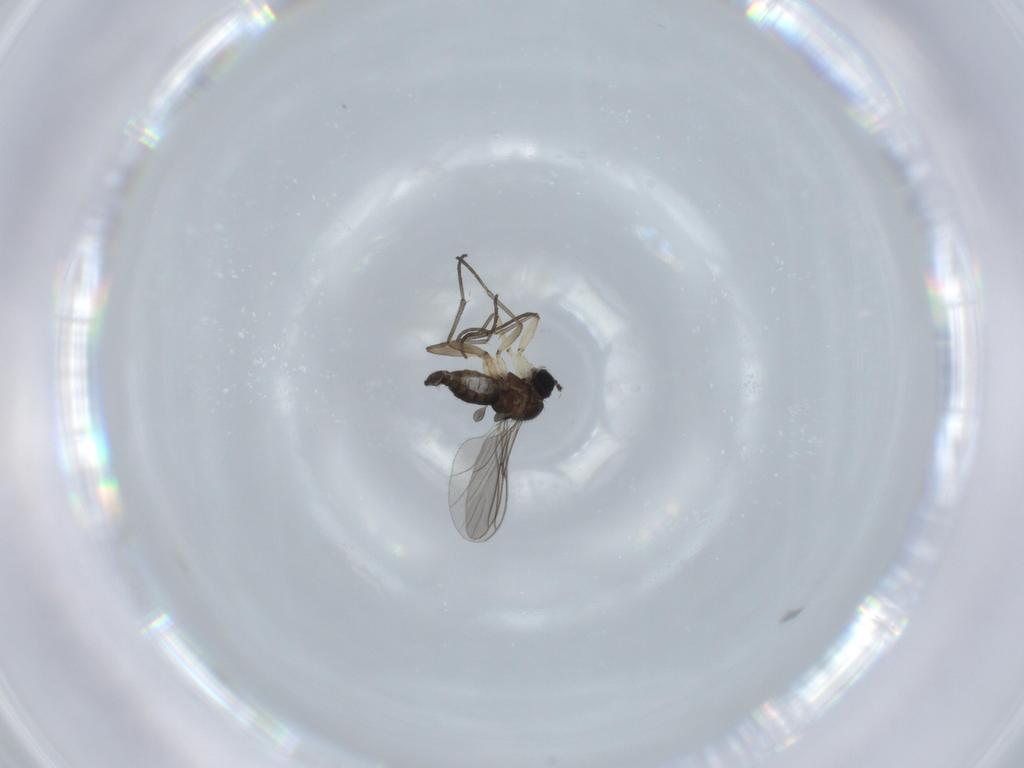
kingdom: Animalia
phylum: Arthropoda
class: Insecta
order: Diptera
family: Sciaridae
